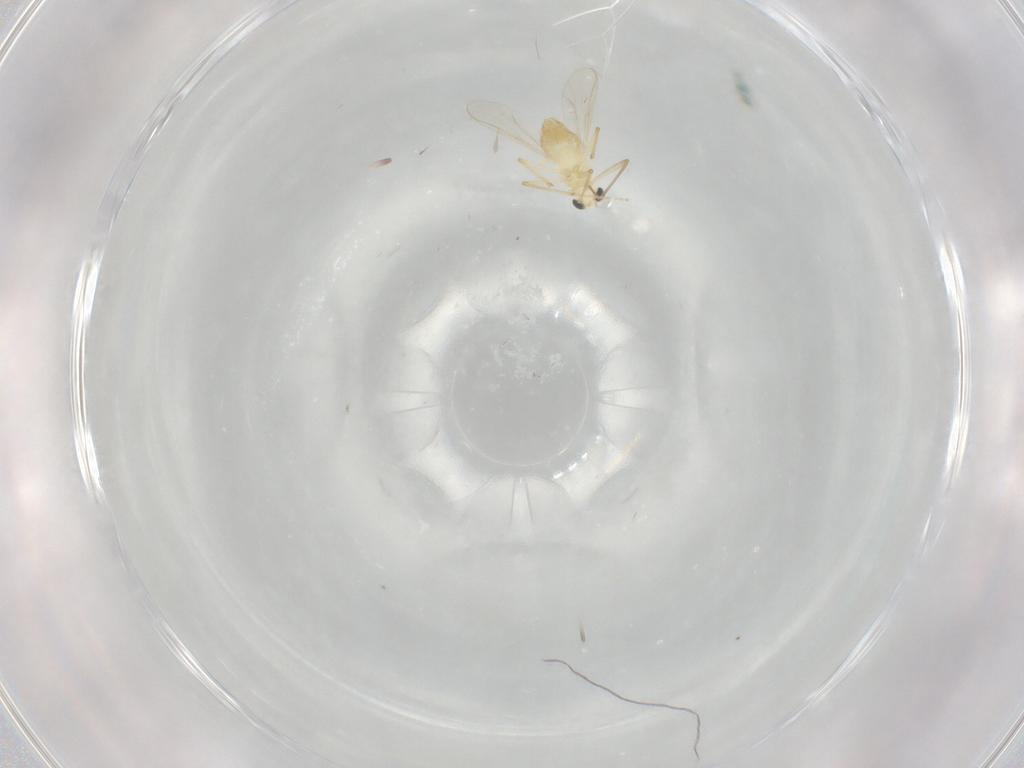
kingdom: Animalia
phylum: Arthropoda
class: Insecta
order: Diptera
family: Chironomidae
